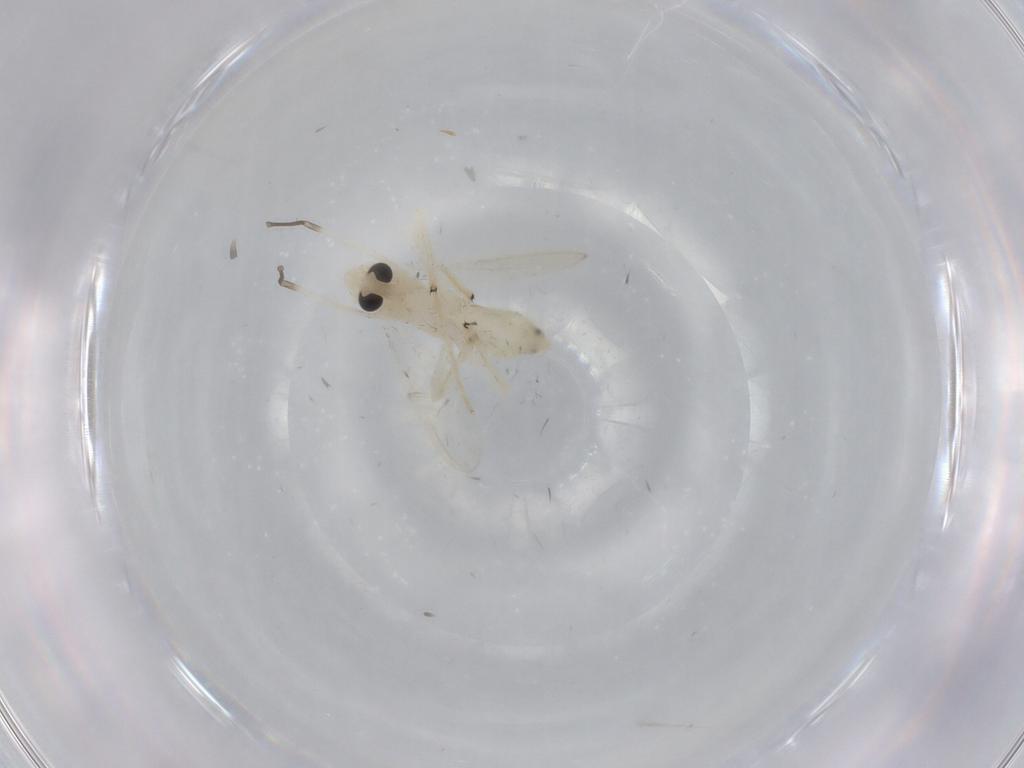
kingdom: Animalia
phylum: Arthropoda
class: Insecta
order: Diptera
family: Chironomidae
